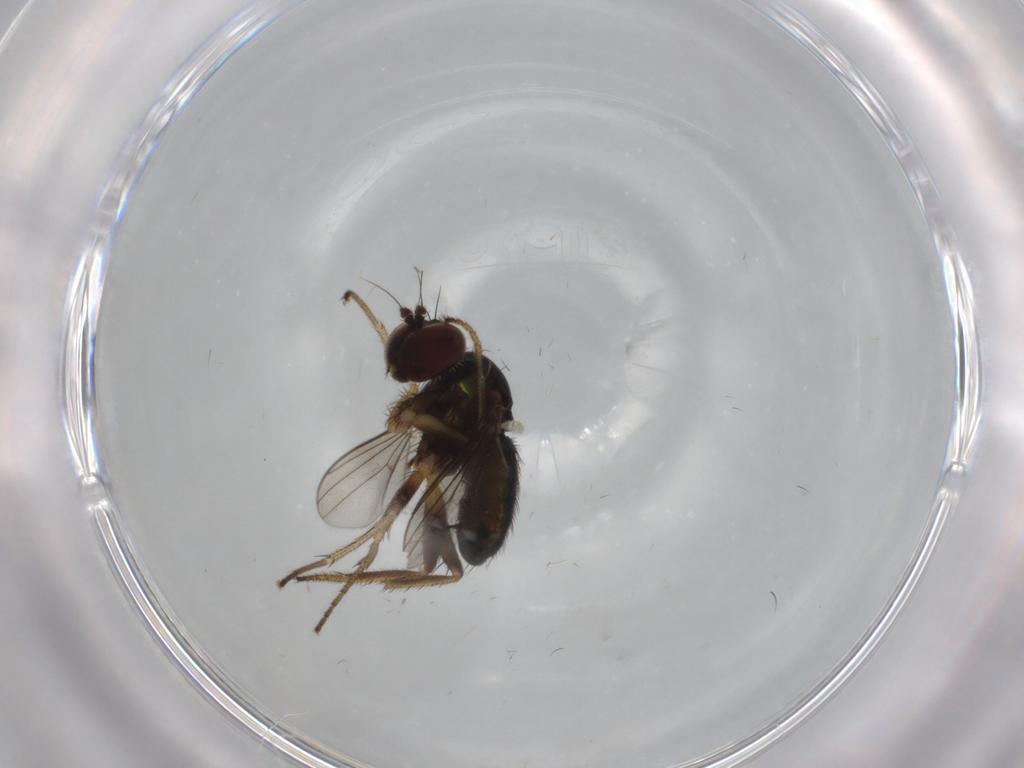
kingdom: Animalia
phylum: Arthropoda
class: Insecta
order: Diptera
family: Dolichopodidae
